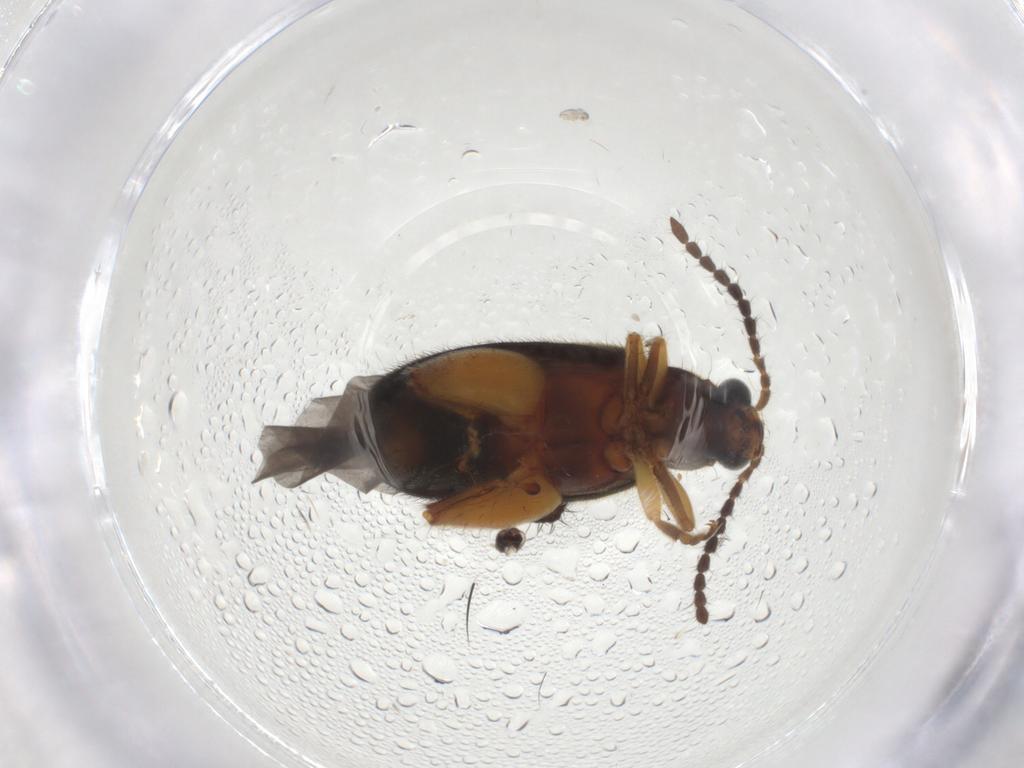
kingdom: Animalia
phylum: Arthropoda
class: Insecta
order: Coleoptera
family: Chrysomelidae
